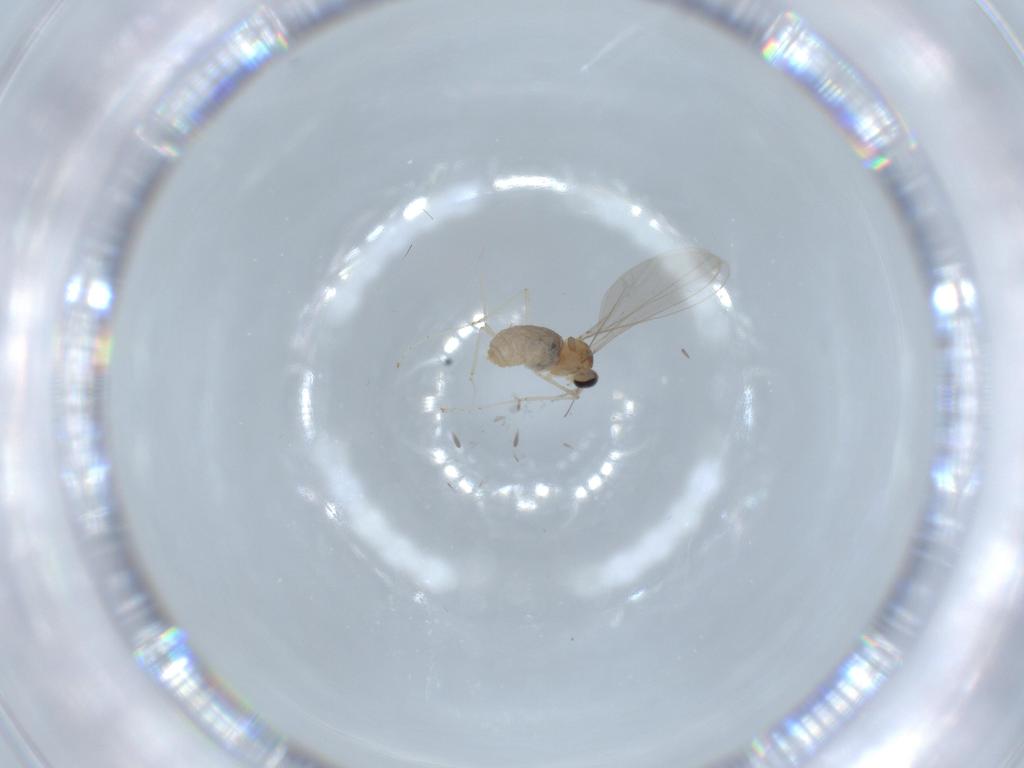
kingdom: Animalia
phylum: Arthropoda
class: Insecta
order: Diptera
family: Cecidomyiidae
